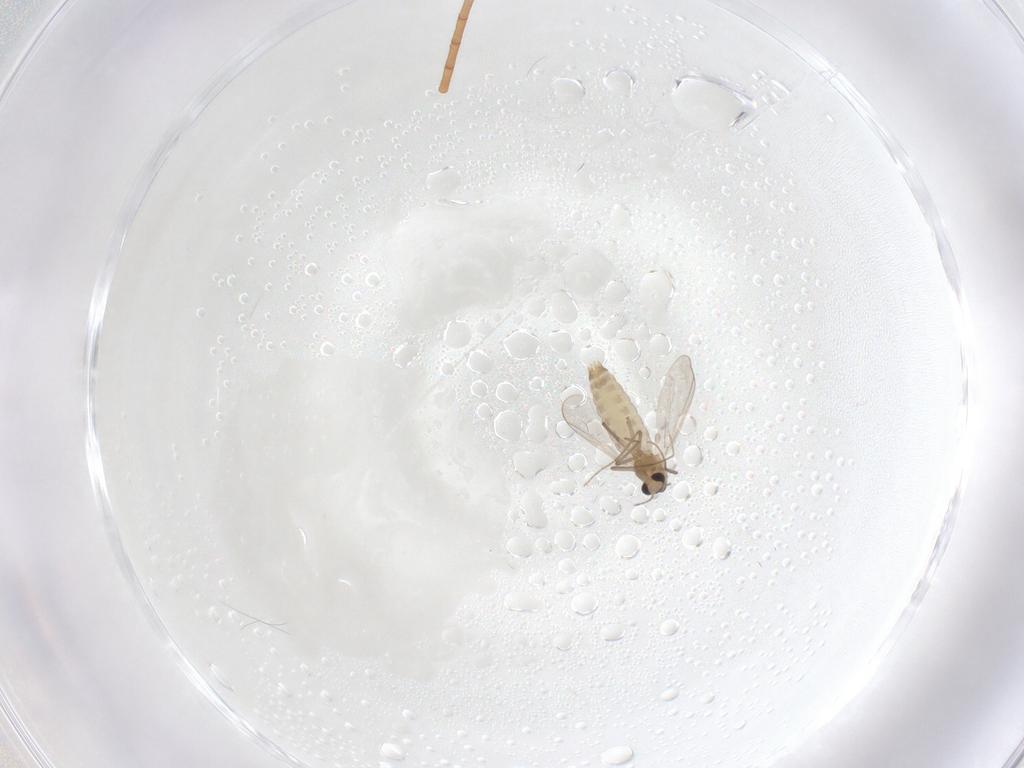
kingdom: Animalia
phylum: Arthropoda
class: Insecta
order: Diptera
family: Chironomidae
